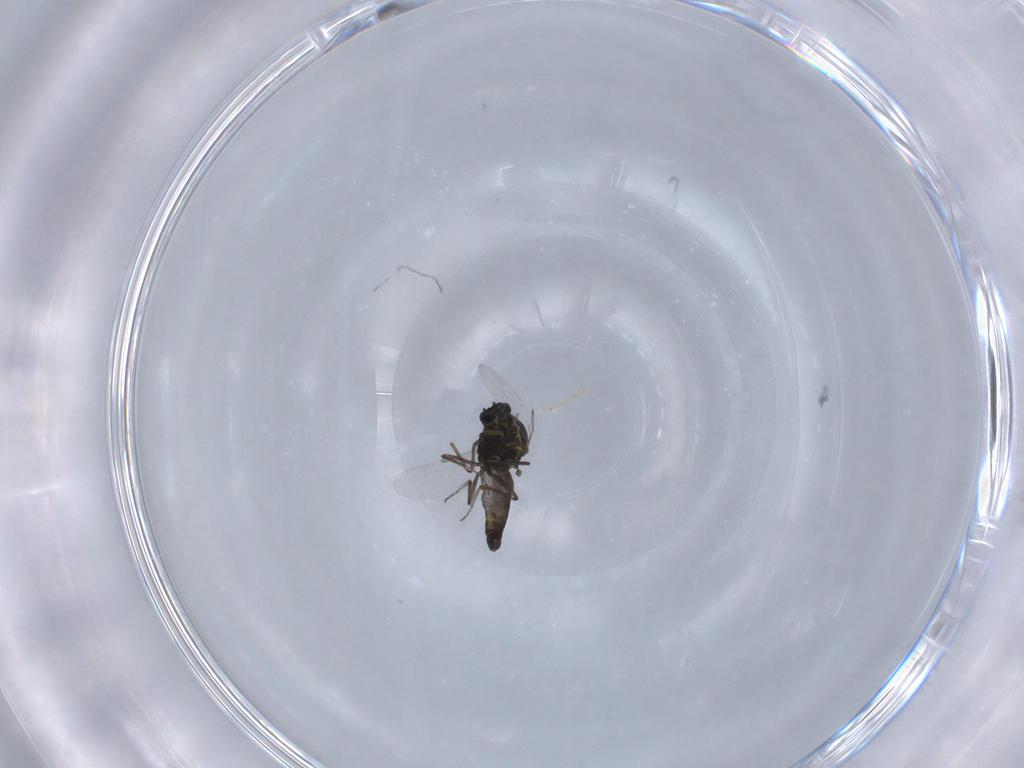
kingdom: Animalia
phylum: Arthropoda
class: Insecta
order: Diptera
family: Ceratopogonidae
